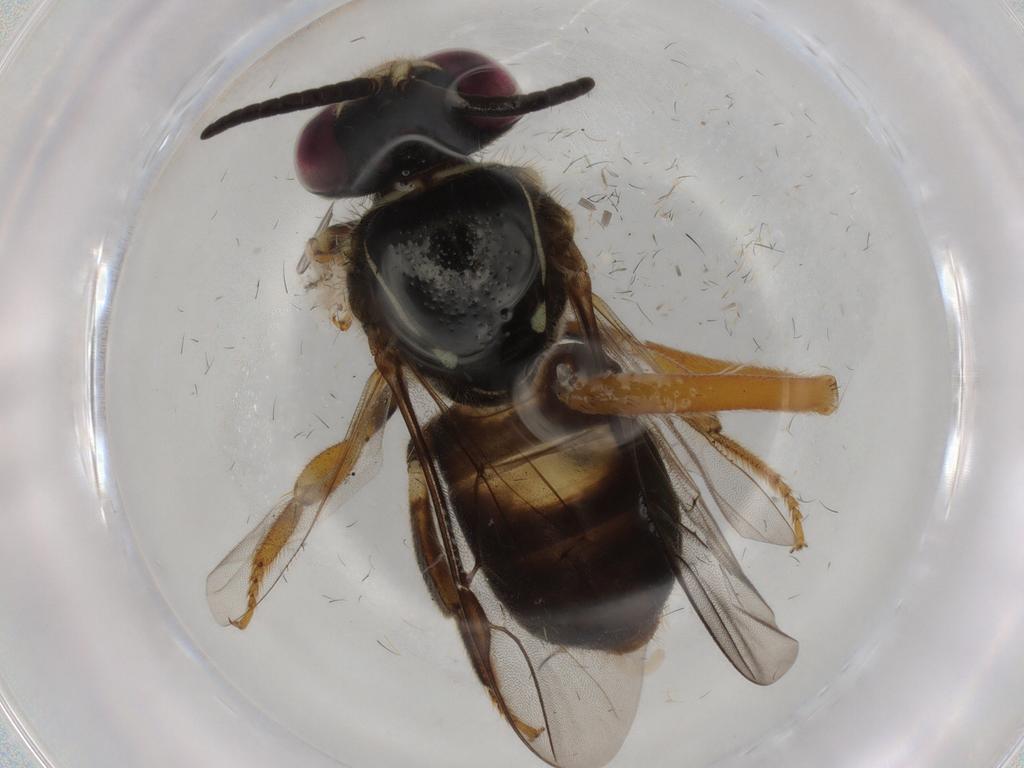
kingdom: Animalia
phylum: Arthropoda
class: Insecta
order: Hymenoptera
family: Apidae
